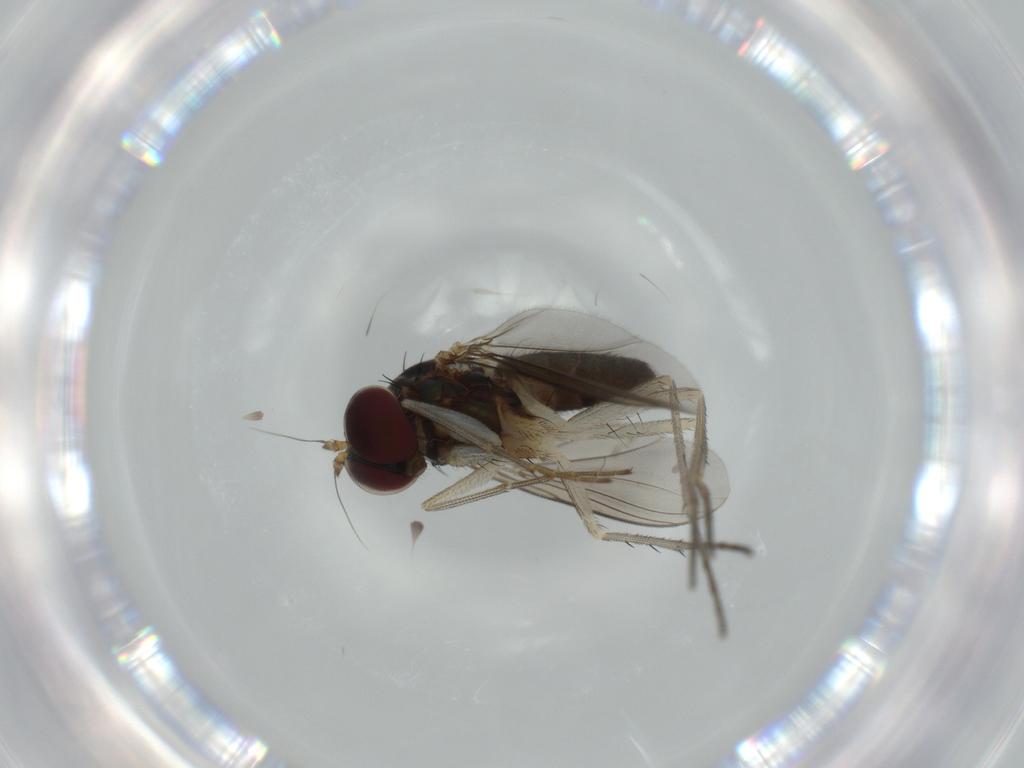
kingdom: Animalia
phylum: Arthropoda
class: Insecta
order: Diptera
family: Dolichopodidae
